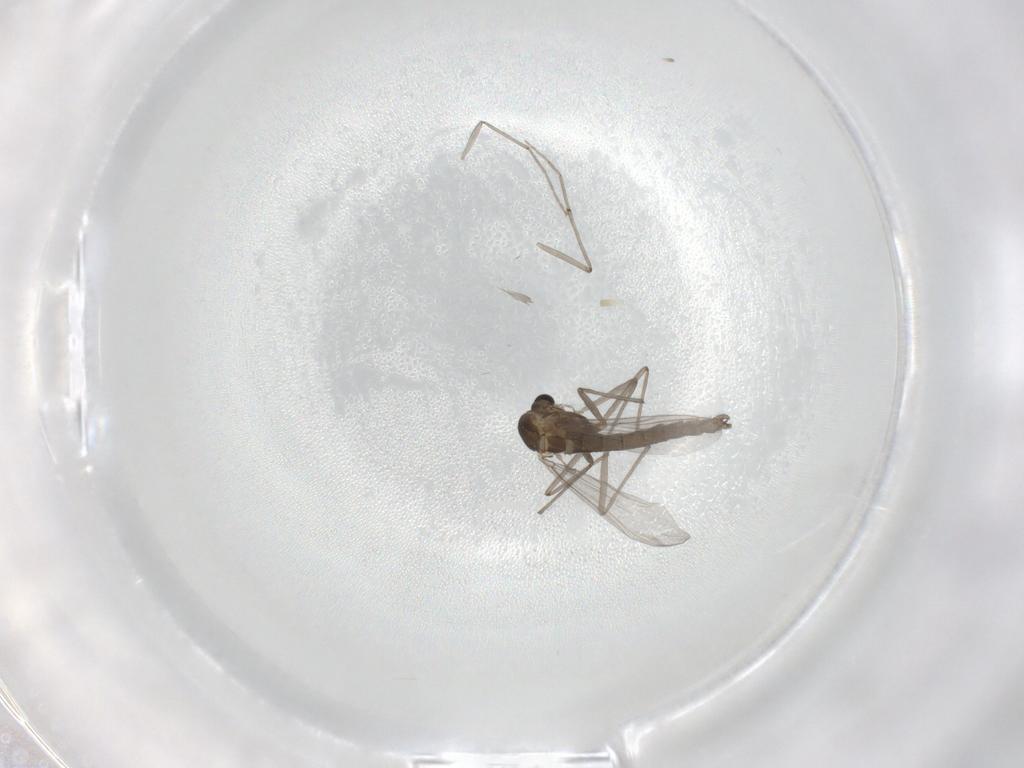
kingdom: Animalia
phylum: Arthropoda
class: Insecta
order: Diptera
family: Chironomidae
